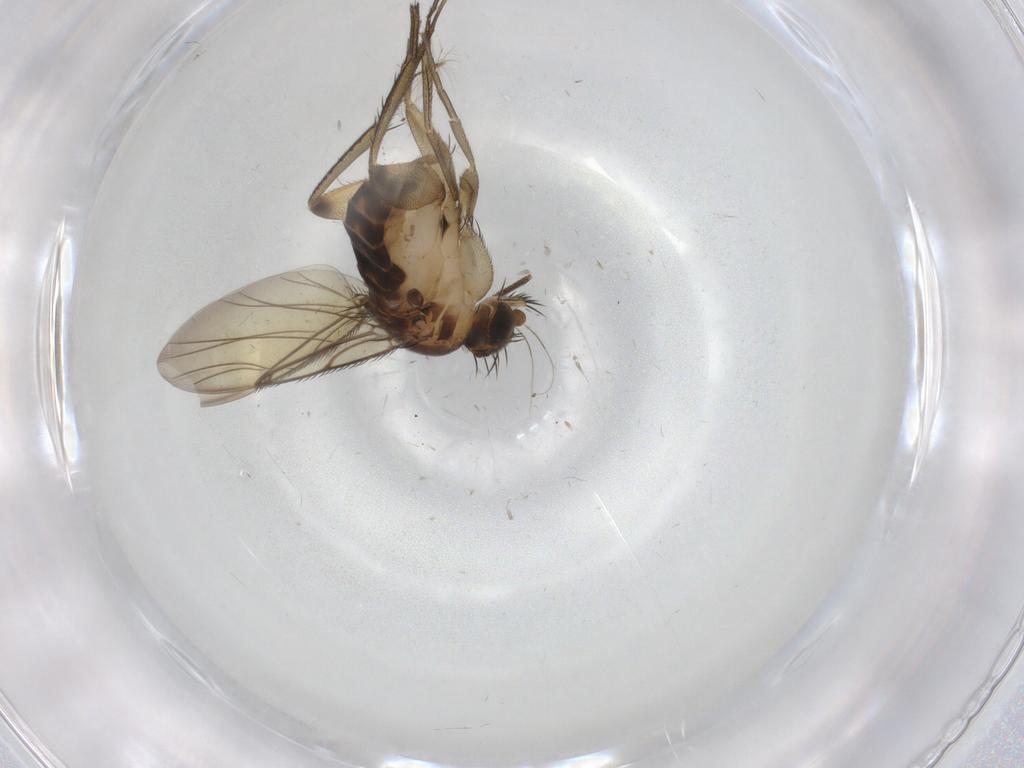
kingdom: Animalia
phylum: Arthropoda
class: Insecta
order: Diptera
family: Phoridae
